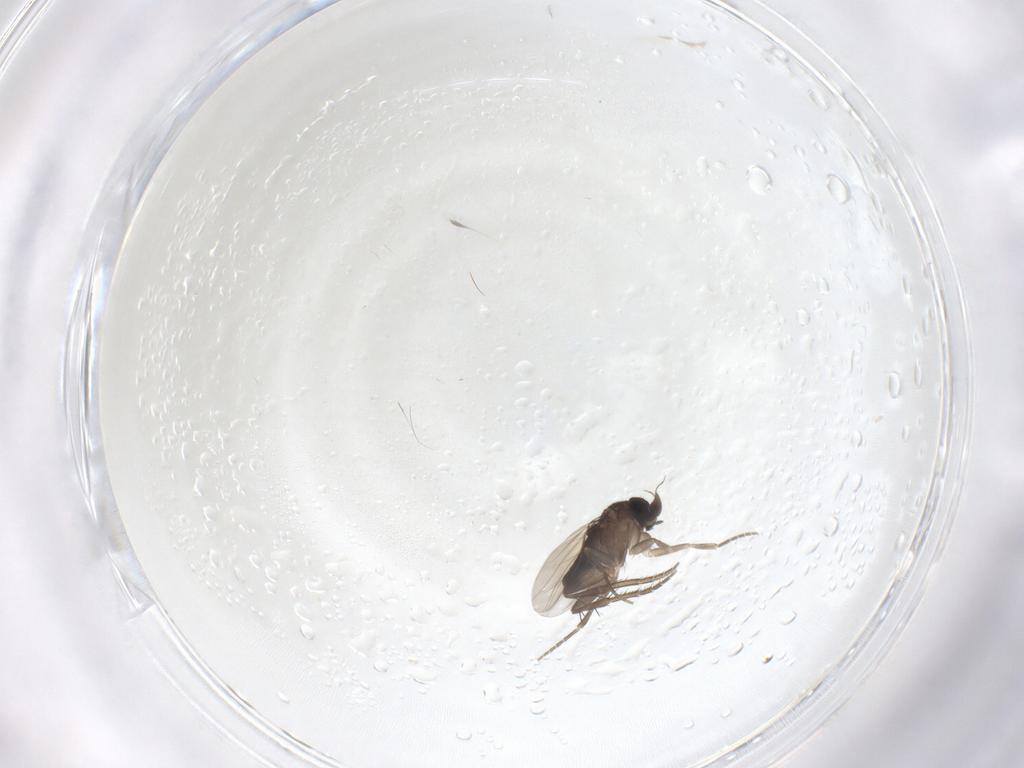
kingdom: Animalia
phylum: Arthropoda
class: Insecta
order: Diptera
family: Phoridae
